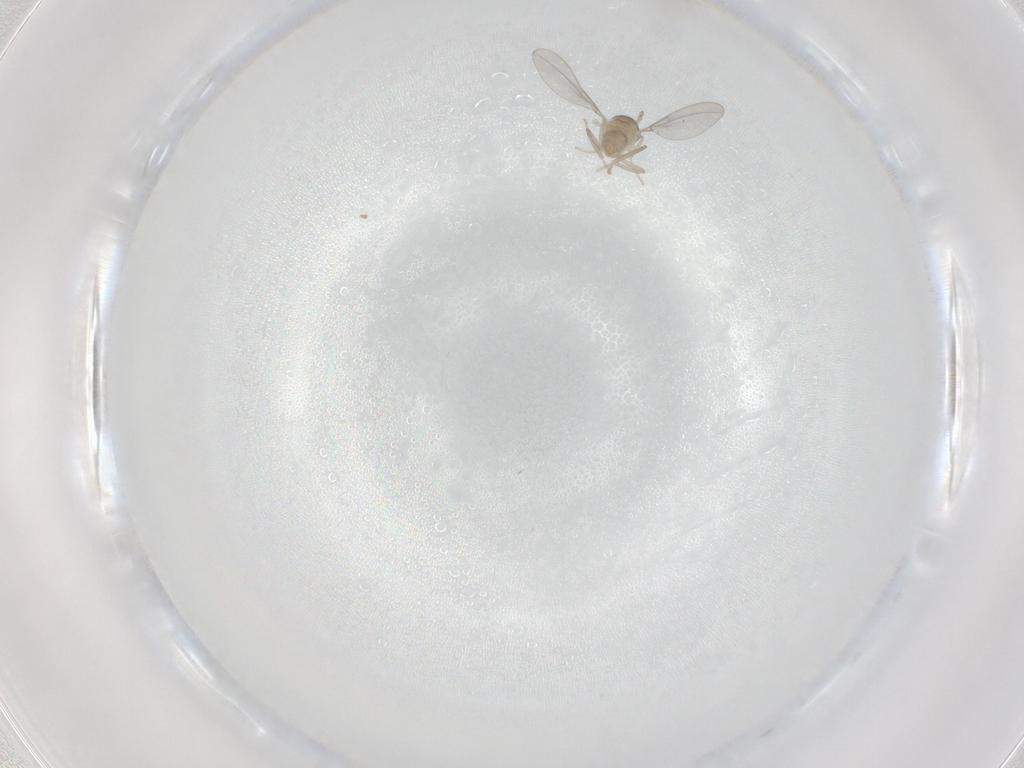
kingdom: Animalia
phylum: Arthropoda
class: Insecta
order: Diptera
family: Cecidomyiidae
